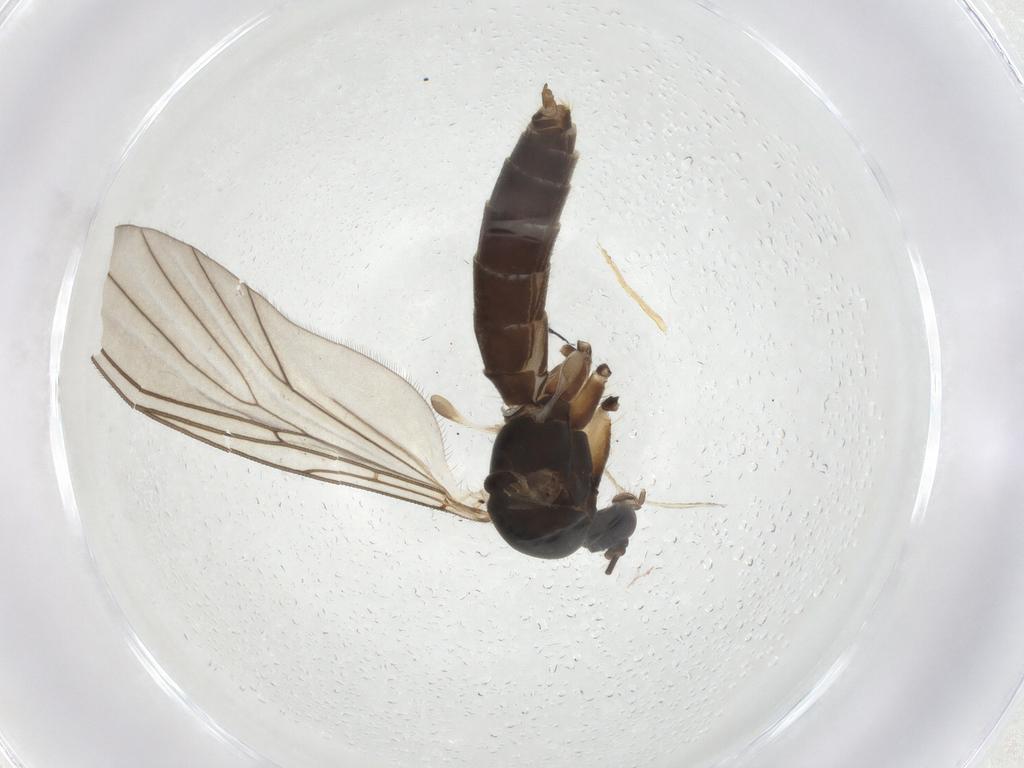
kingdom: Animalia
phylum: Arthropoda
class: Insecta
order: Diptera
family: Mycetophilidae
